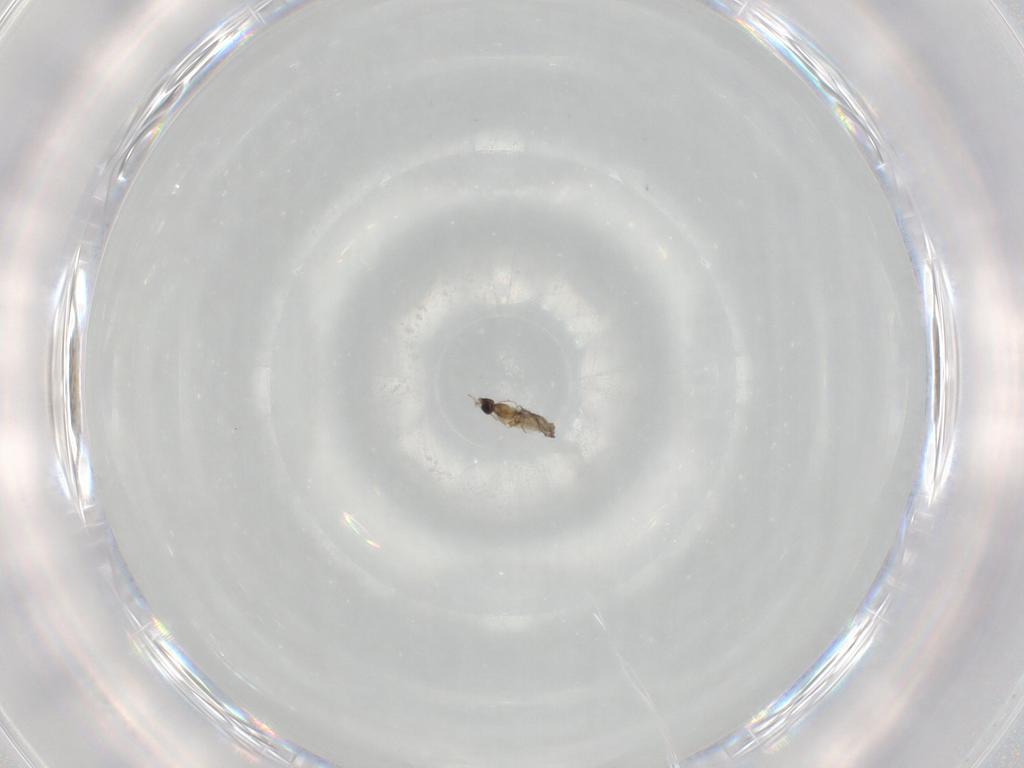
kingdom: Animalia
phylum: Arthropoda
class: Insecta
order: Diptera
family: Cecidomyiidae
